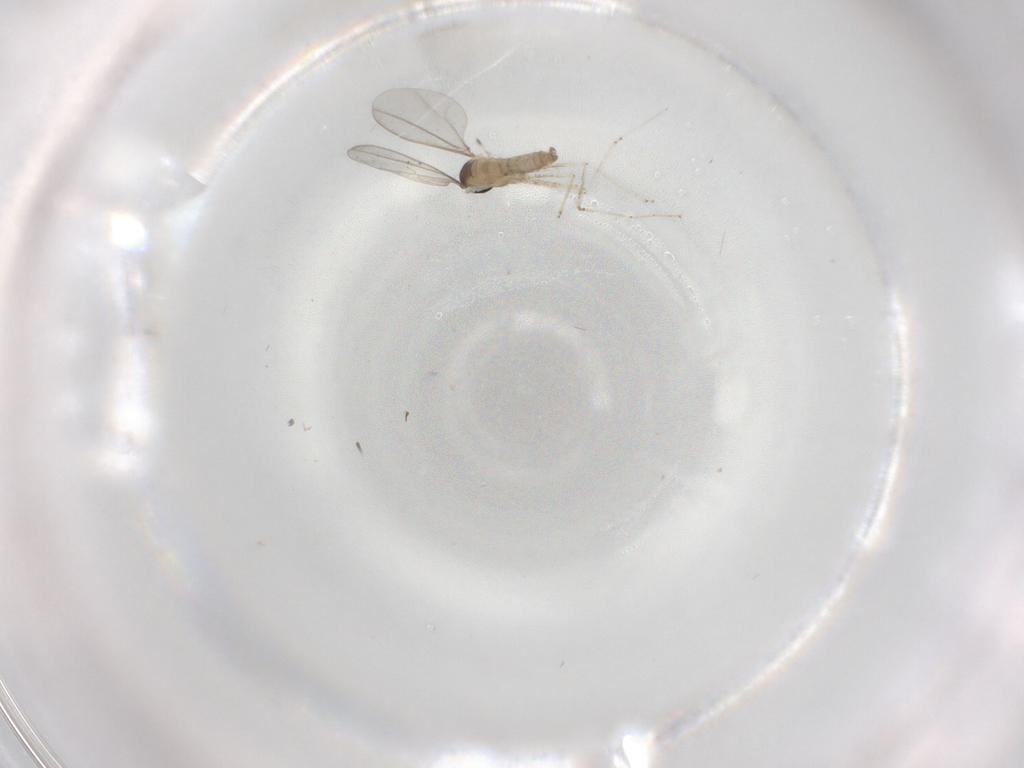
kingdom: Animalia
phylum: Arthropoda
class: Insecta
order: Diptera
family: Cecidomyiidae
